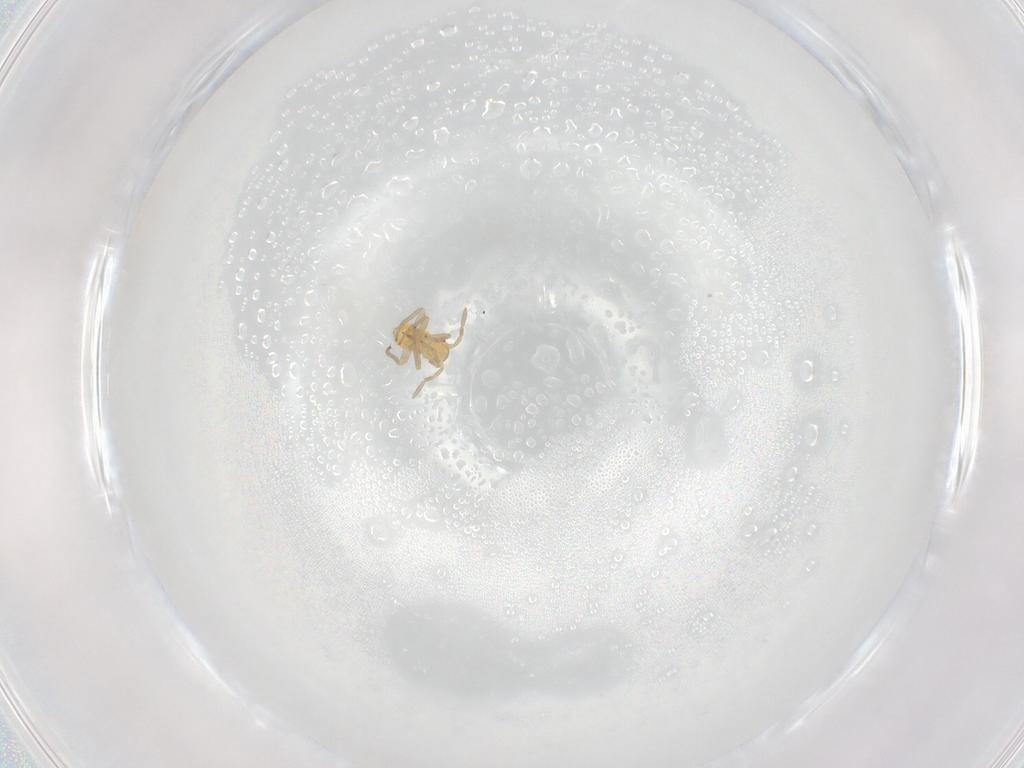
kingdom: Animalia
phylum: Arthropoda
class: Insecta
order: Hemiptera
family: Miridae
